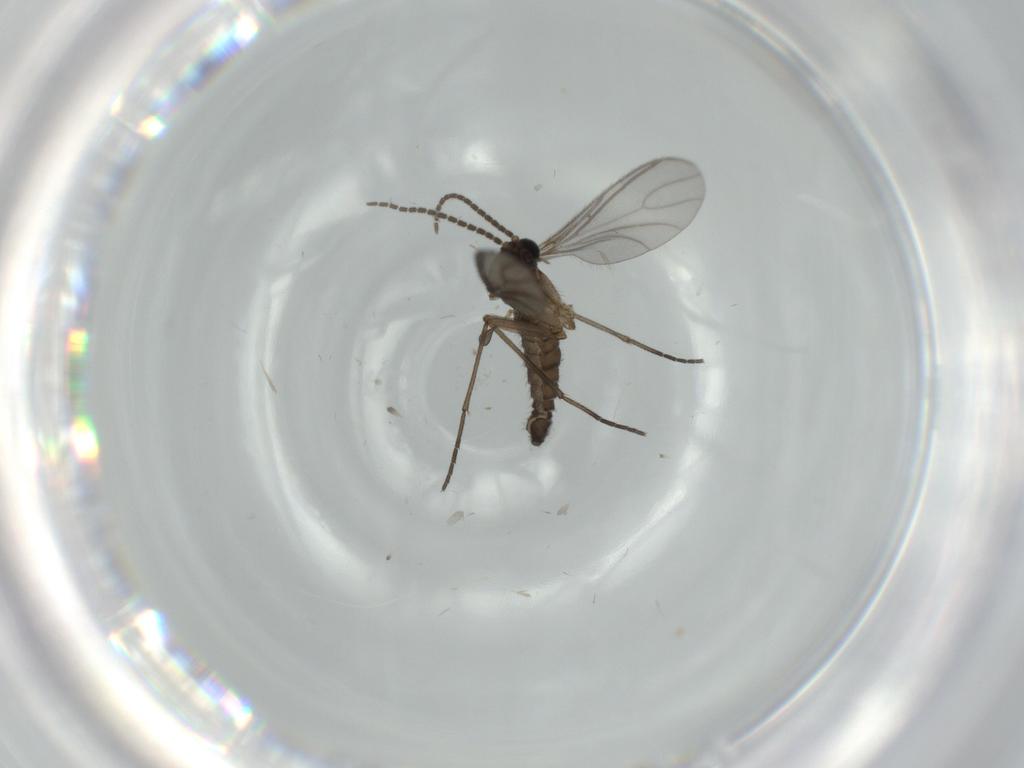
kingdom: Animalia
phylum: Arthropoda
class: Insecta
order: Diptera
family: Sciaridae
